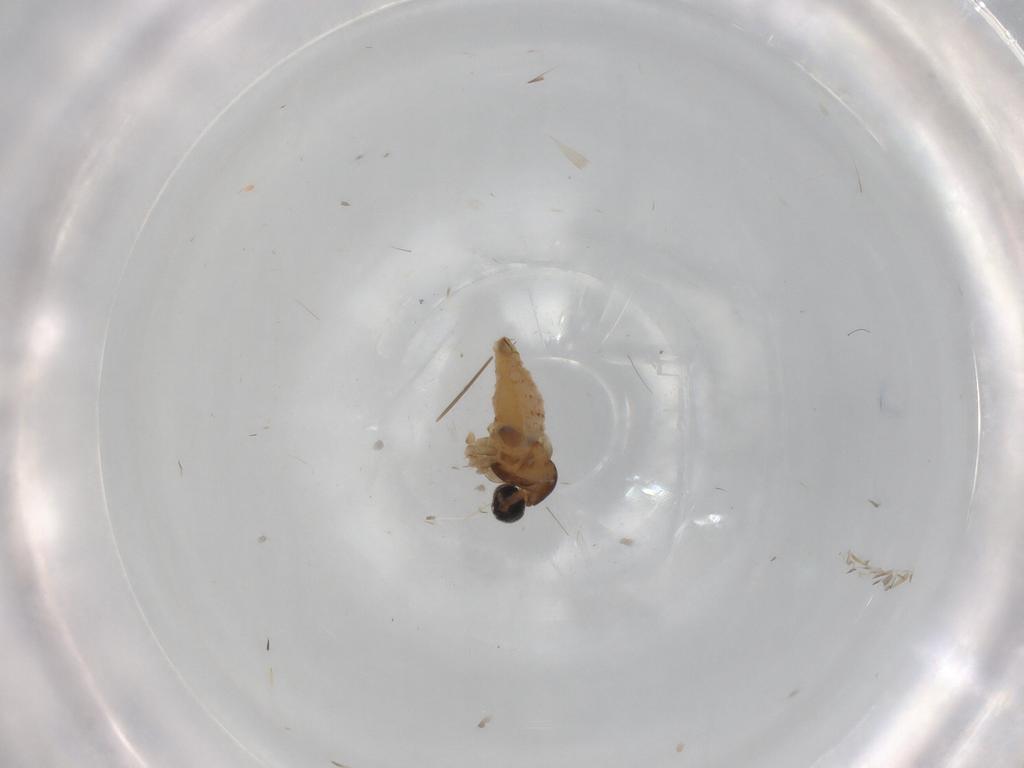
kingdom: Animalia
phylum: Arthropoda
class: Insecta
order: Diptera
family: Cecidomyiidae
